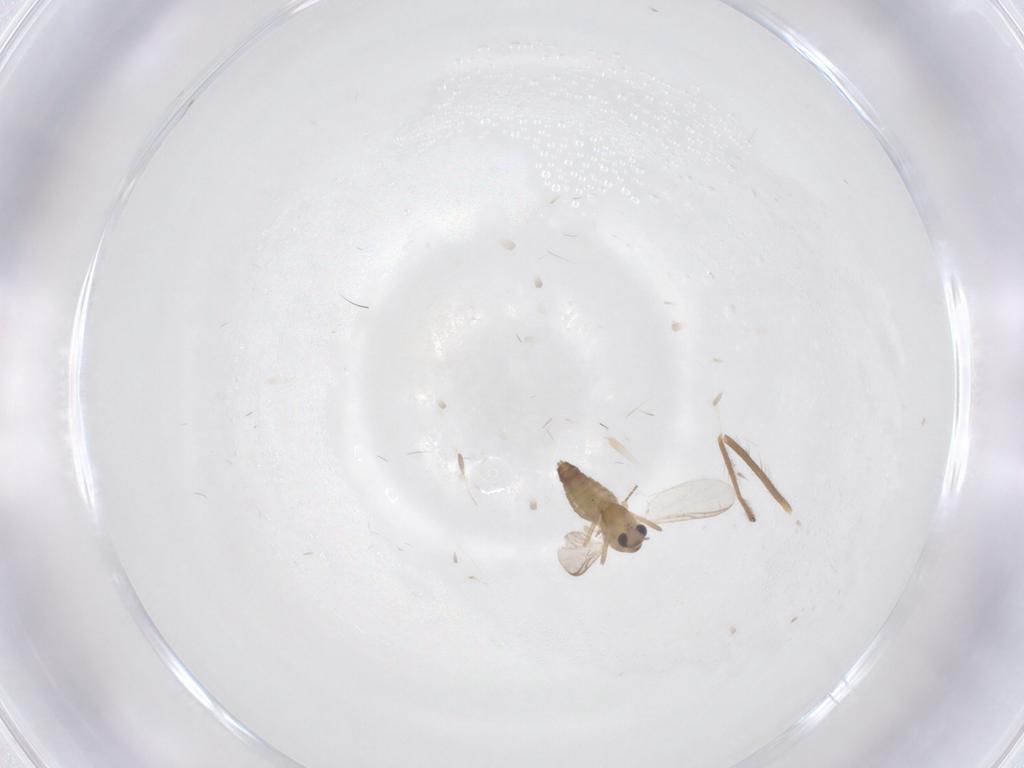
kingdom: Animalia
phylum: Arthropoda
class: Insecta
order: Diptera
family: Chironomidae
